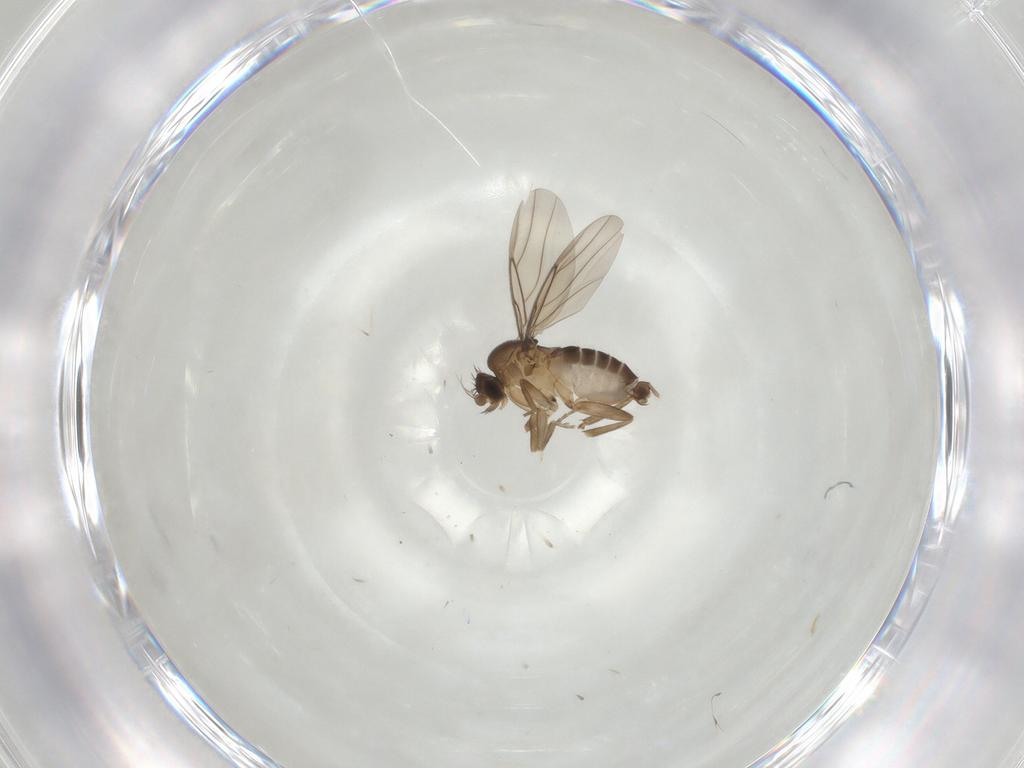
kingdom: Animalia
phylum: Arthropoda
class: Insecta
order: Diptera
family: Phoridae
